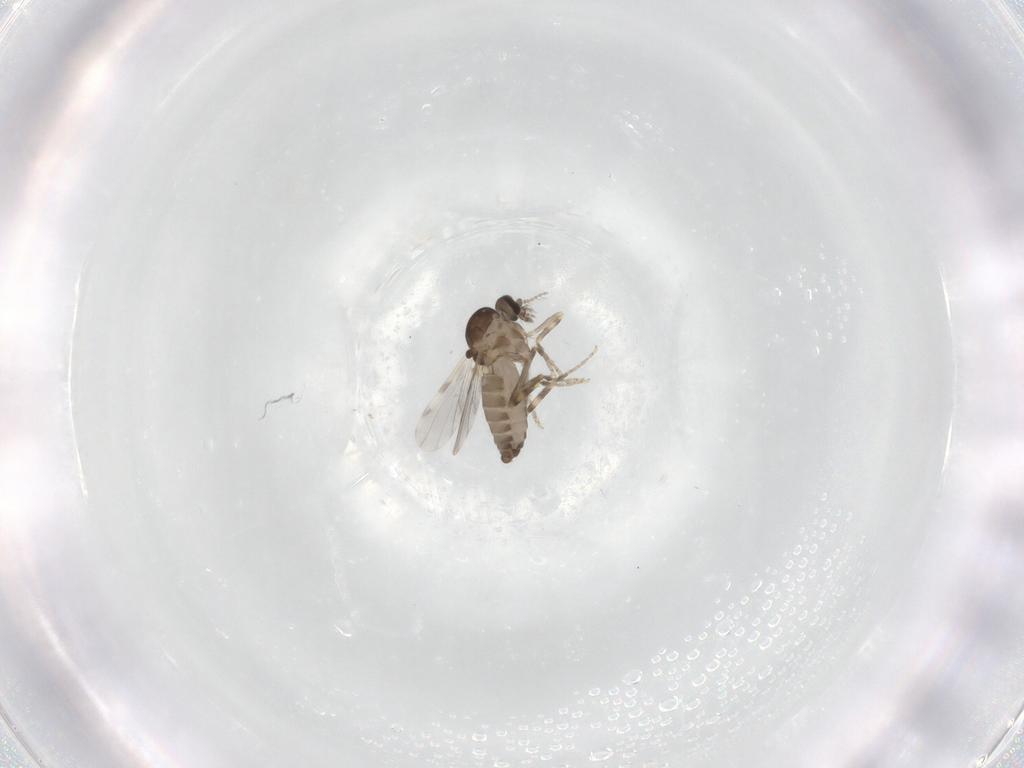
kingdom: Animalia
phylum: Arthropoda
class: Insecta
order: Diptera
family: Ceratopogonidae
